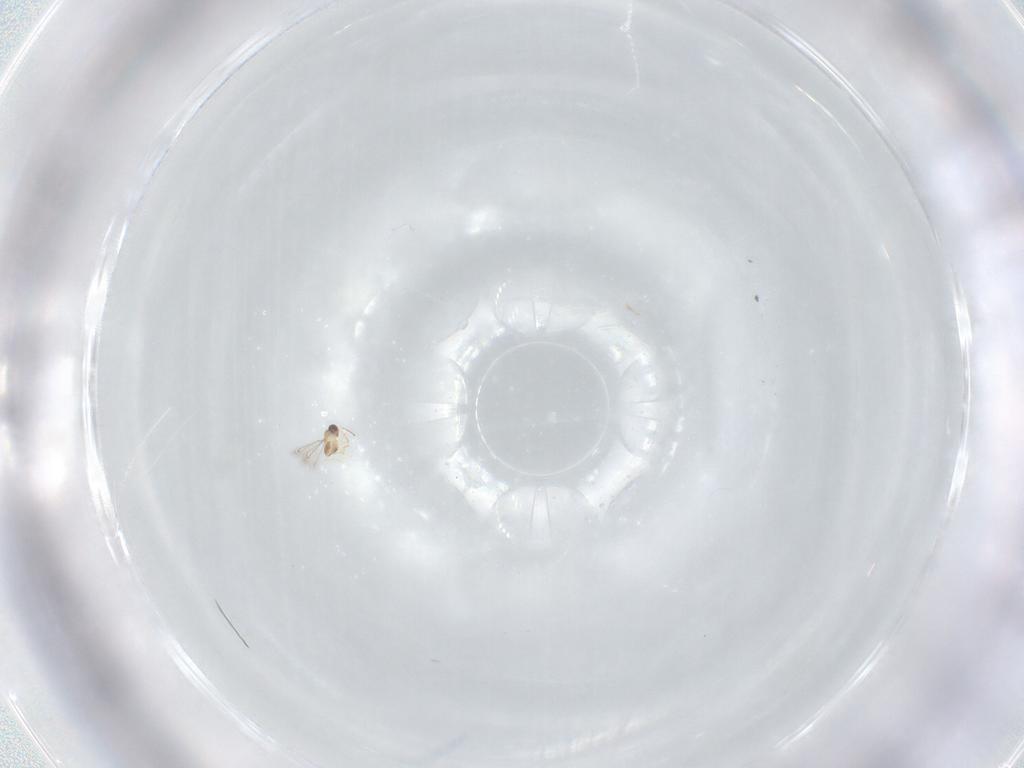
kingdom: Animalia
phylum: Arthropoda
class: Insecta
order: Hymenoptera
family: Mymaridae
